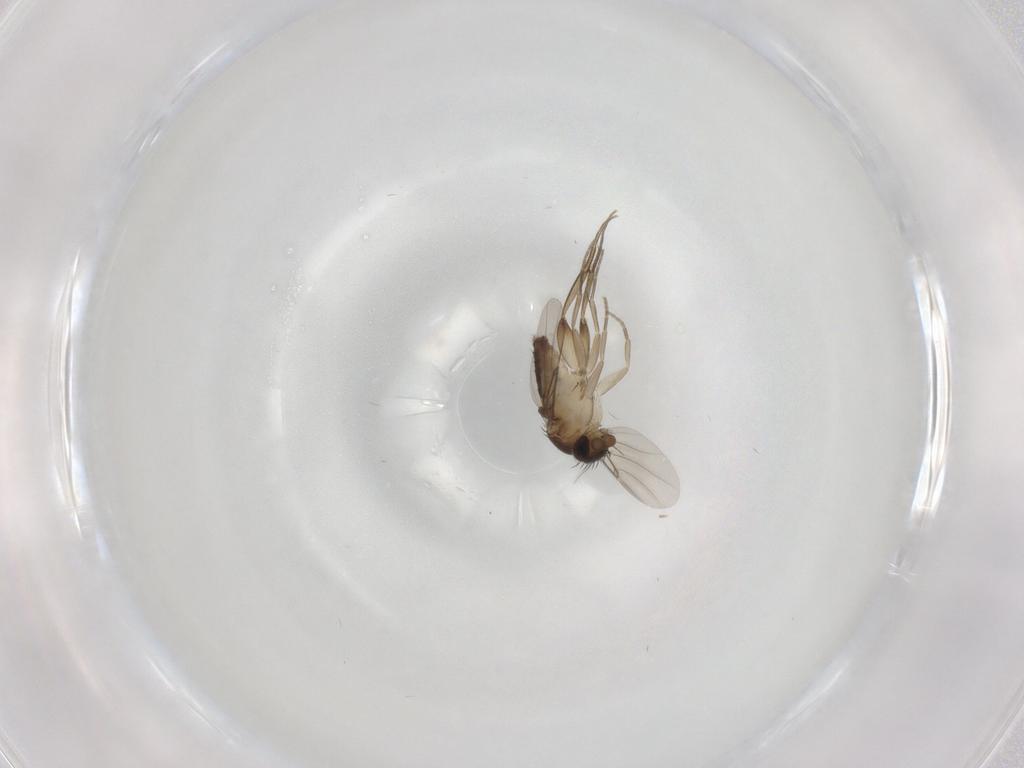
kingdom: Animalia
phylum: Arthropoda
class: Insecta
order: Diptera
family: Phoridae
